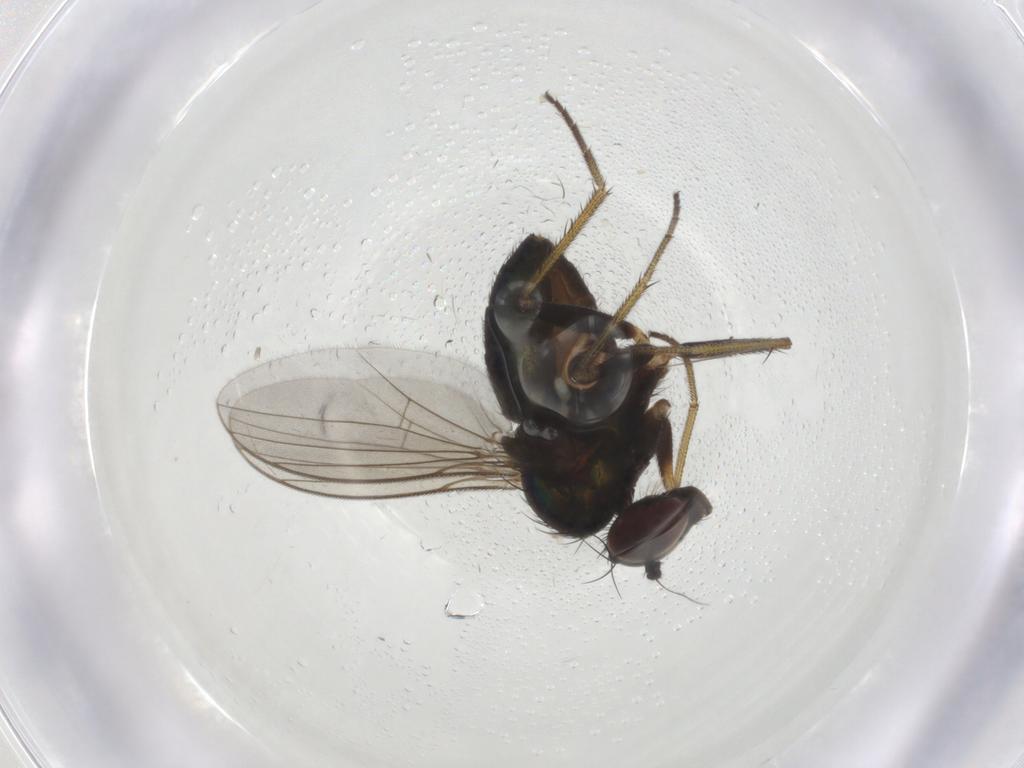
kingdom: Animalia
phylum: Arthropoda
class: Insecta
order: Diptera
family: Dolichopodidae
